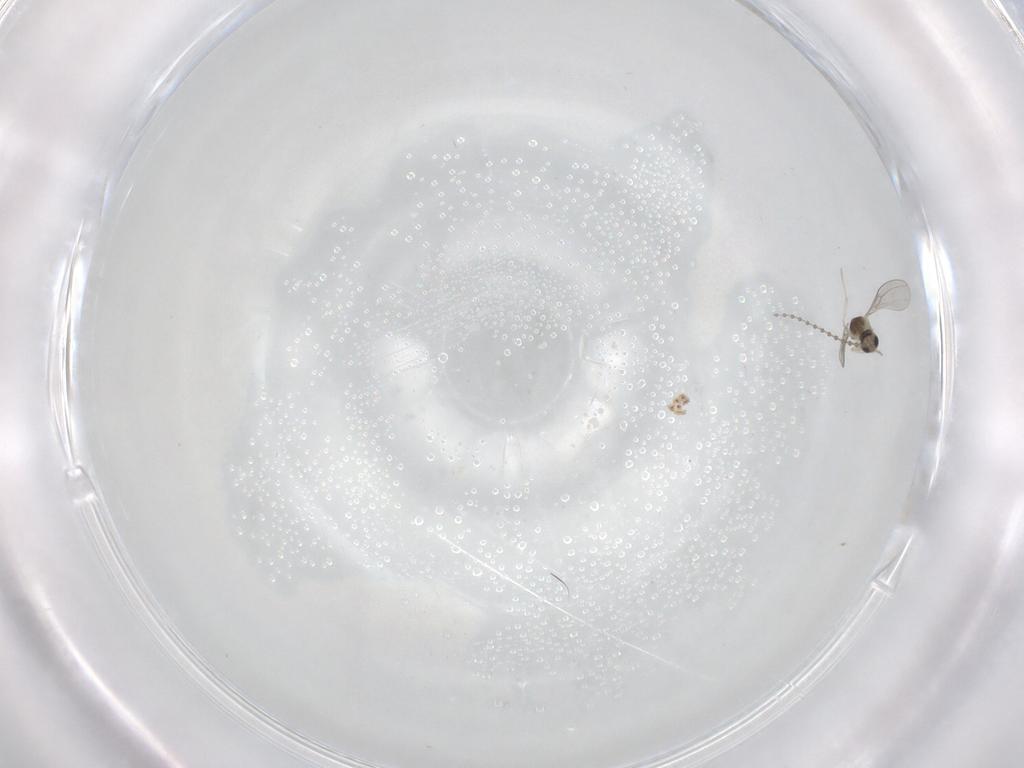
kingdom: Animalia
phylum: Arthropoda
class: Insecta
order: Diptera
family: Cecidomyiidae
